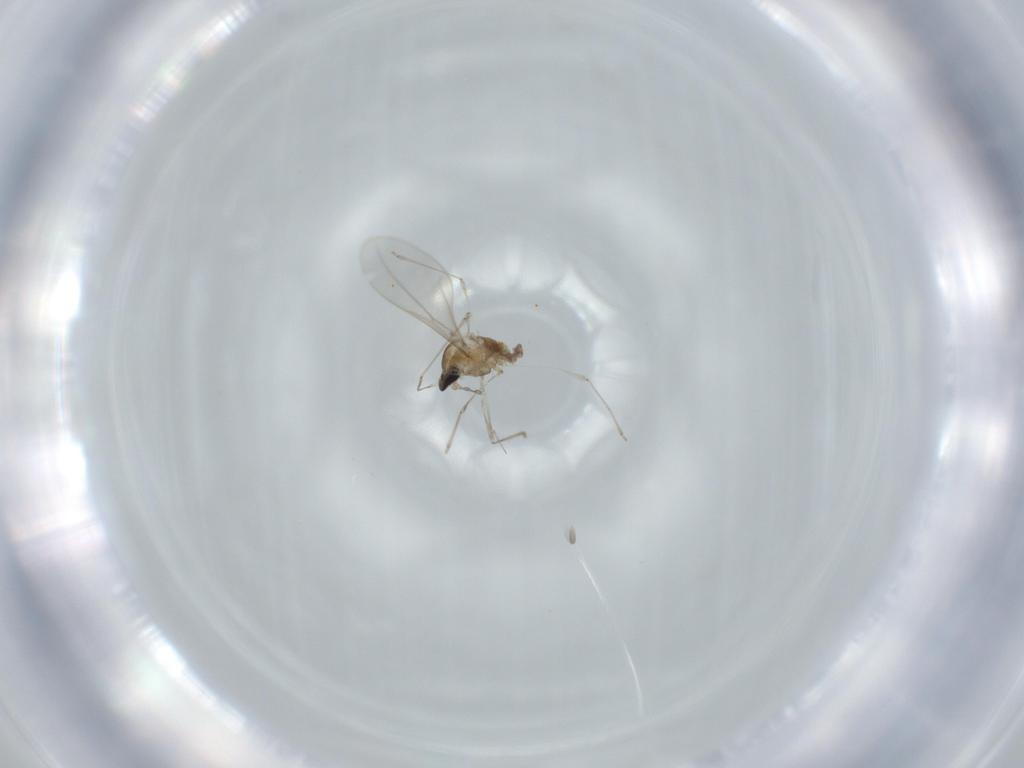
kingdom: Animalia
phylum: Arthropoda
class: Insecta
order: Diptera
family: Cecidomyiidae
